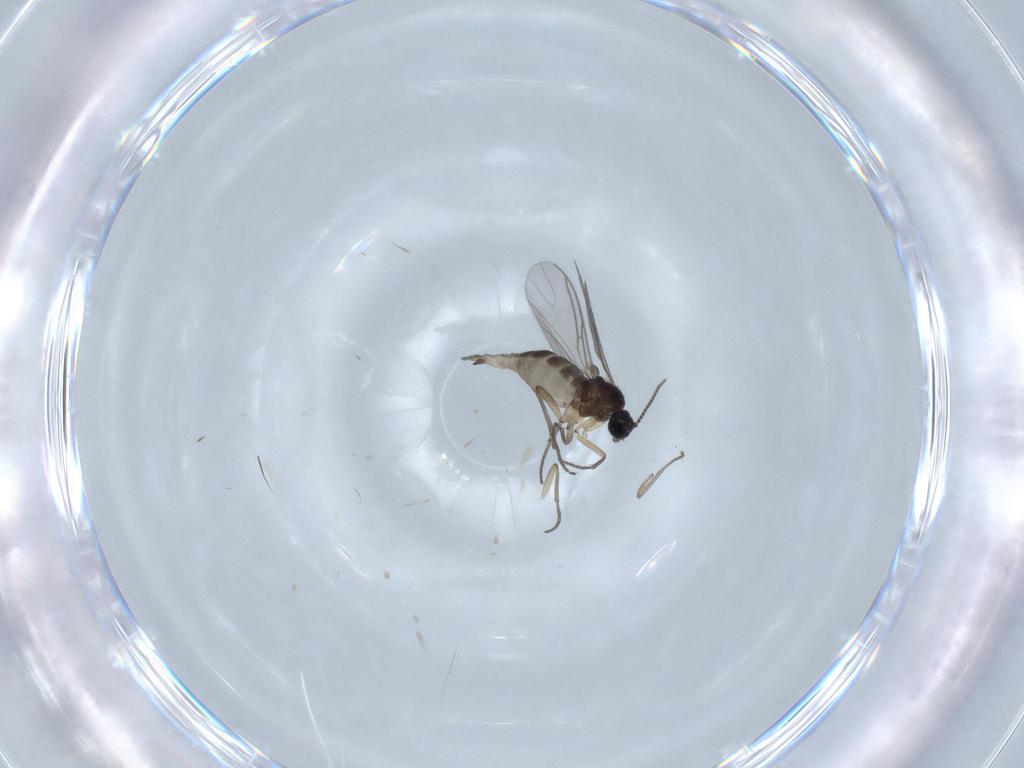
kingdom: Animalia
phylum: Arthropoda
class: Insecta
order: Diptera
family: Sciaridae
